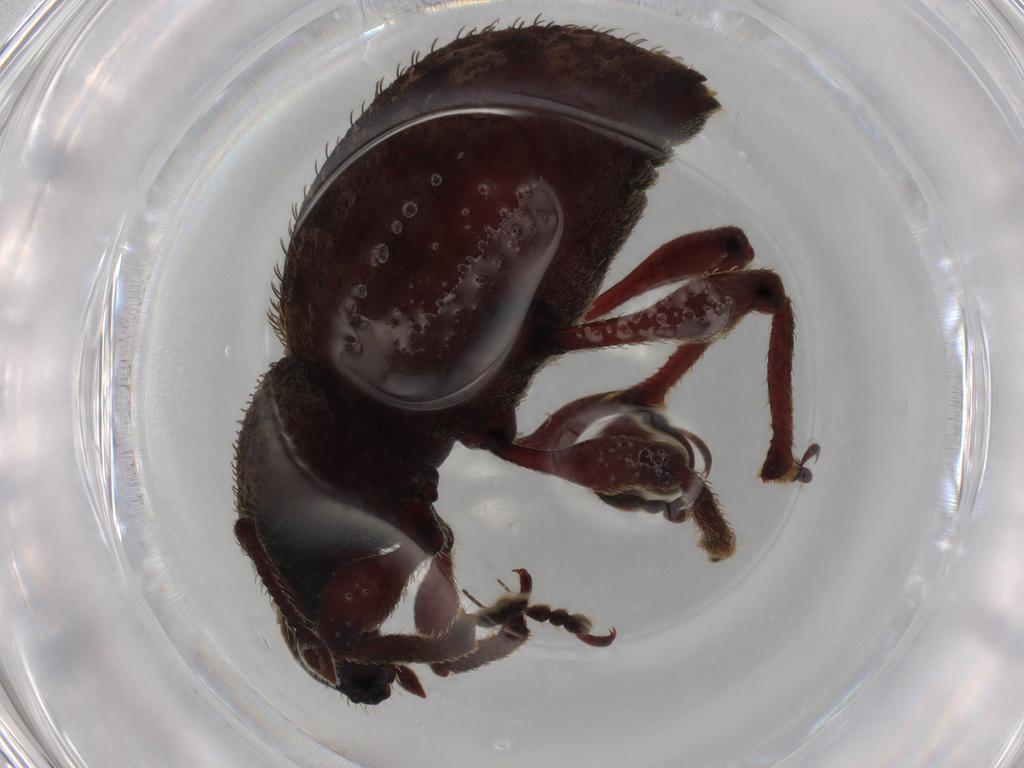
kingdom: Animalia
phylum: Arthropoda
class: Insecta
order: Coleoptera
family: Curculionidae
